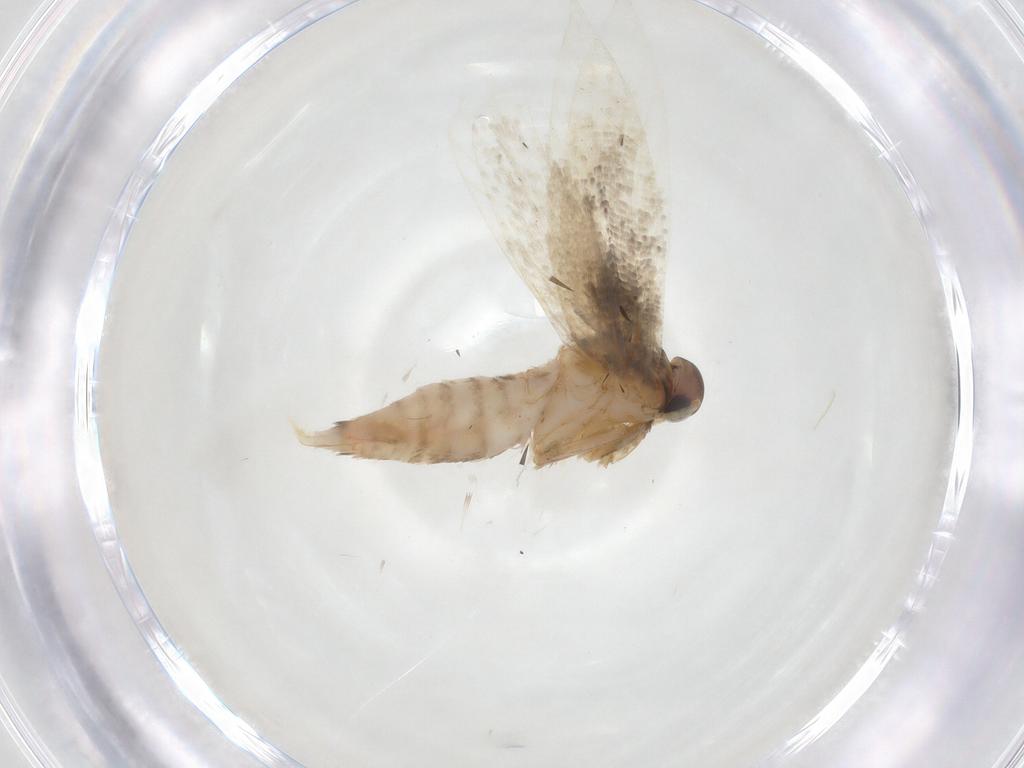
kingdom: Animalia
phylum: Arthropoda
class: Insecta
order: Lepidoptera
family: Gelechiidae
